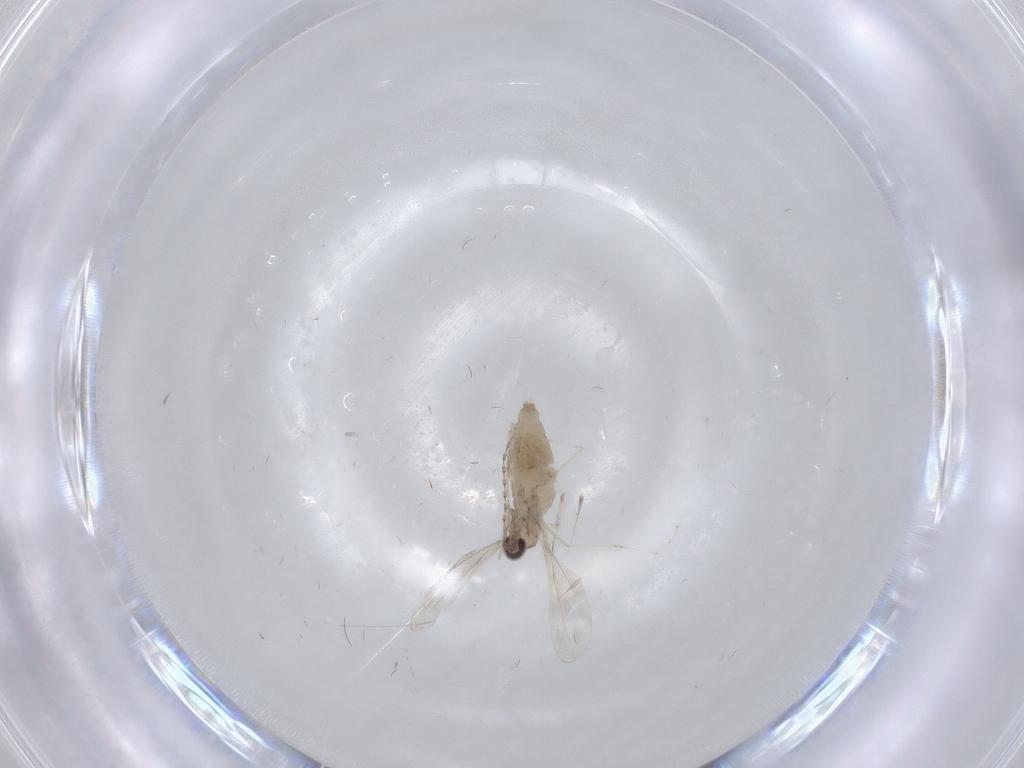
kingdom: Animalia
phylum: Arthropoda
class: Insecta
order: Diptera
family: Cecidomyiidae
